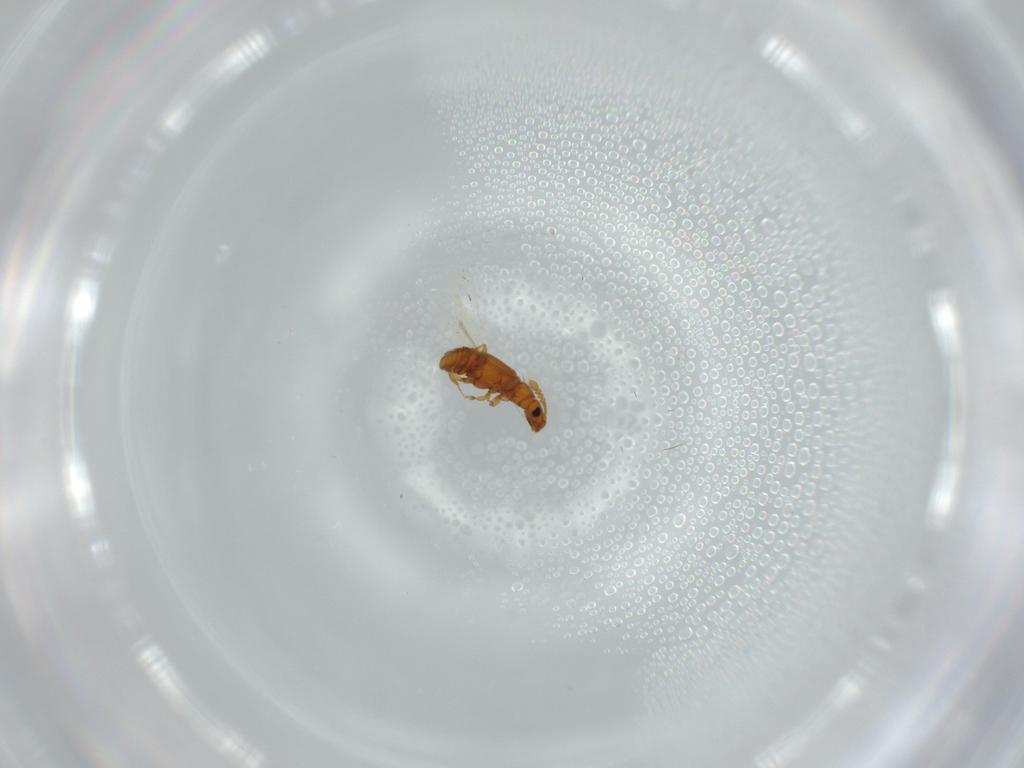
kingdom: Animalia
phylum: Arthropoda
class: Insecta
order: Coleoptera
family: Staphylinidae
